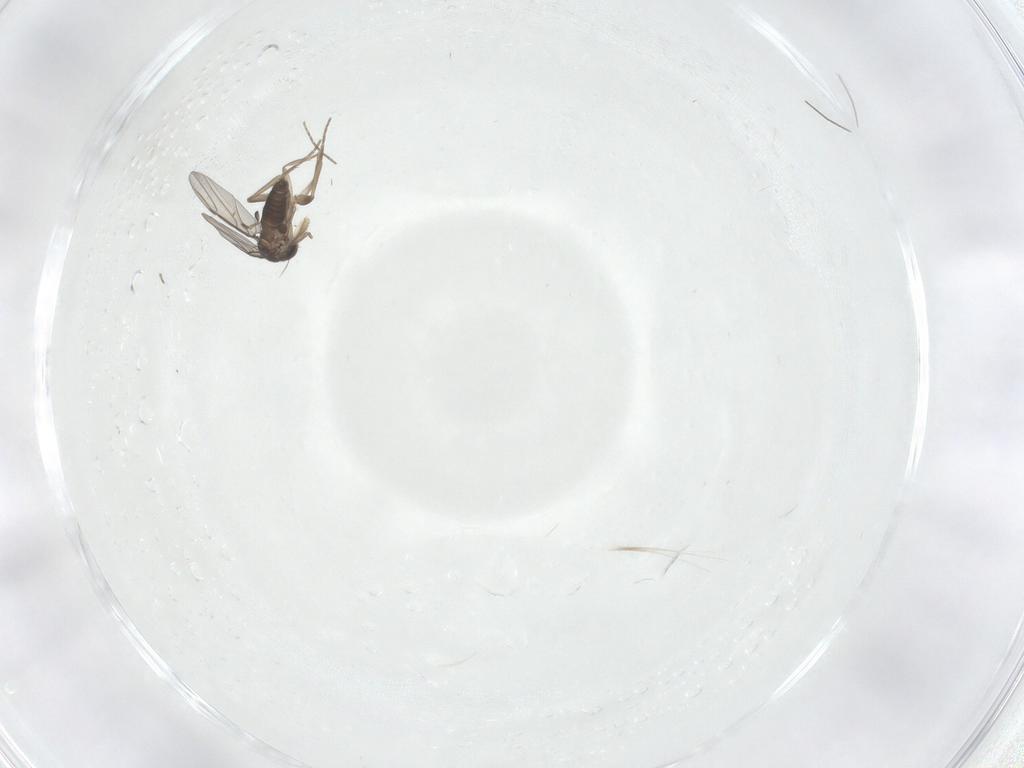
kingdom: Animalia
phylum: Arthropoda
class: Insecta
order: Diptera
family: Phoridae
